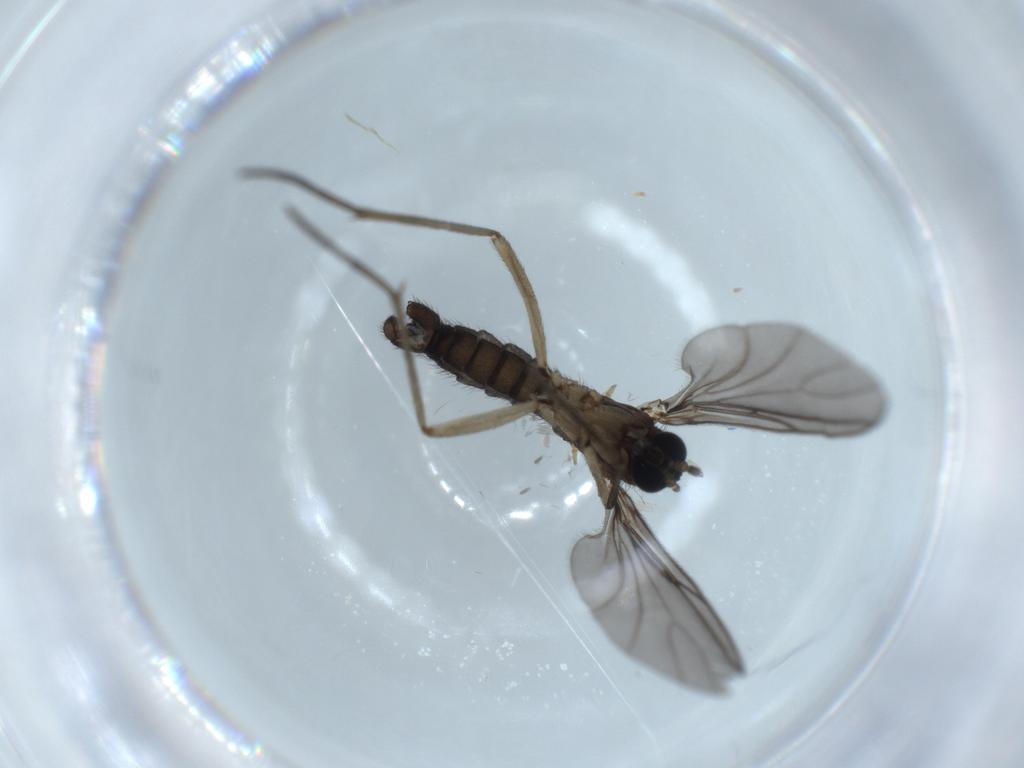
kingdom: Animalia
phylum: Arthropoda
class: Insecta
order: Diptera
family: Sciaridae
